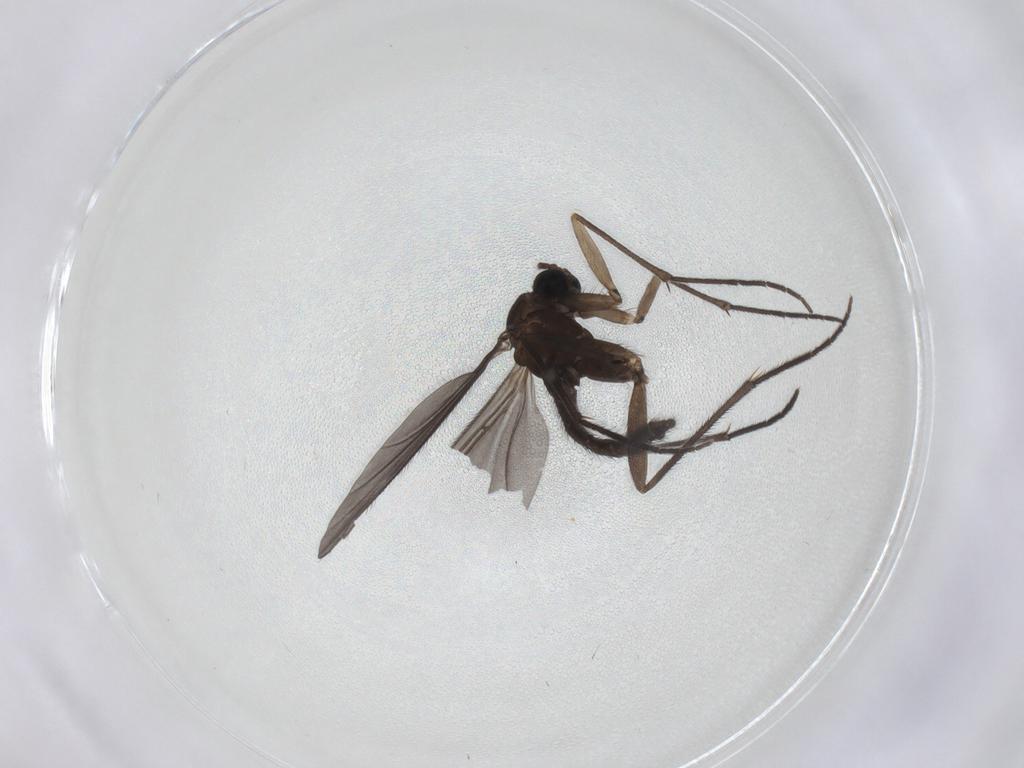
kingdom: Animalia
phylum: Arthropoda
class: Insecta
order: Diptera
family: Sciaridae
